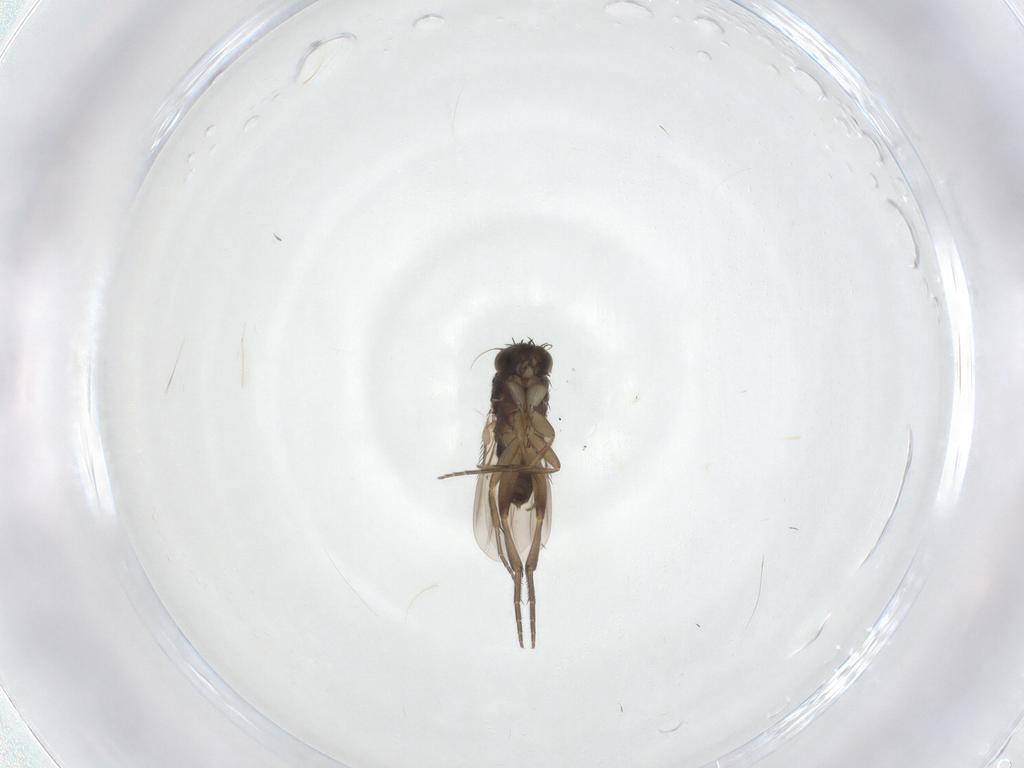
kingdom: Animalia
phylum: Arthropoda
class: Insecta
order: Diptera
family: Phoridae
